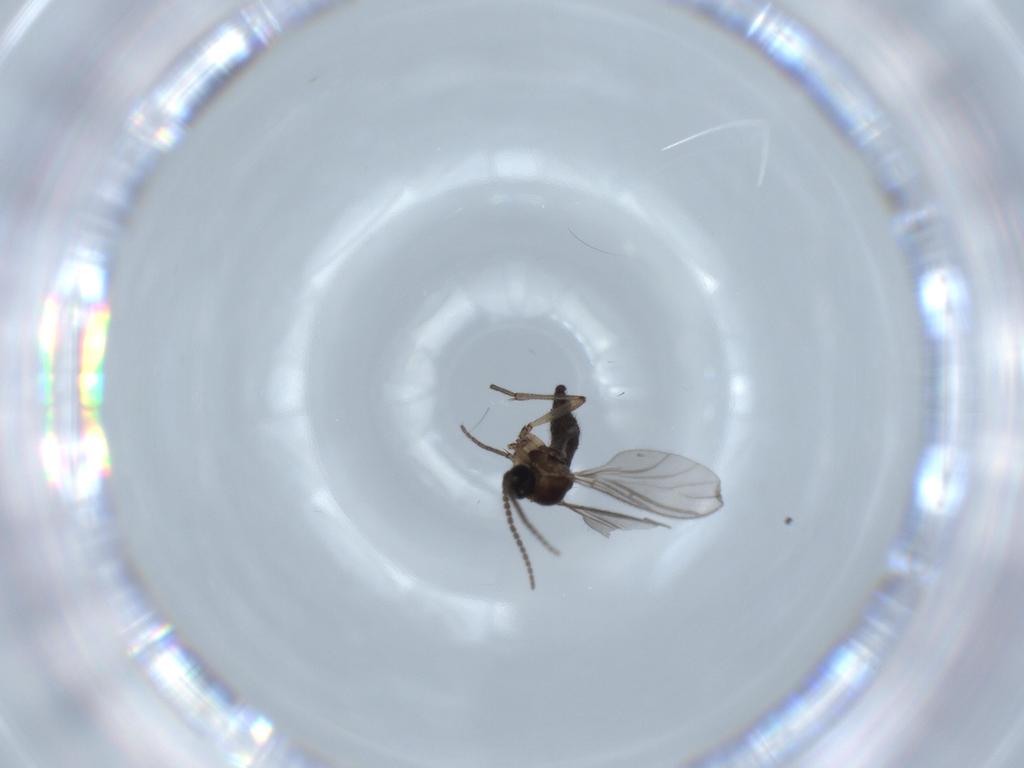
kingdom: Animalia
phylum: Arthropoda
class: Insecta
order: Diptera
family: Sciaridae
